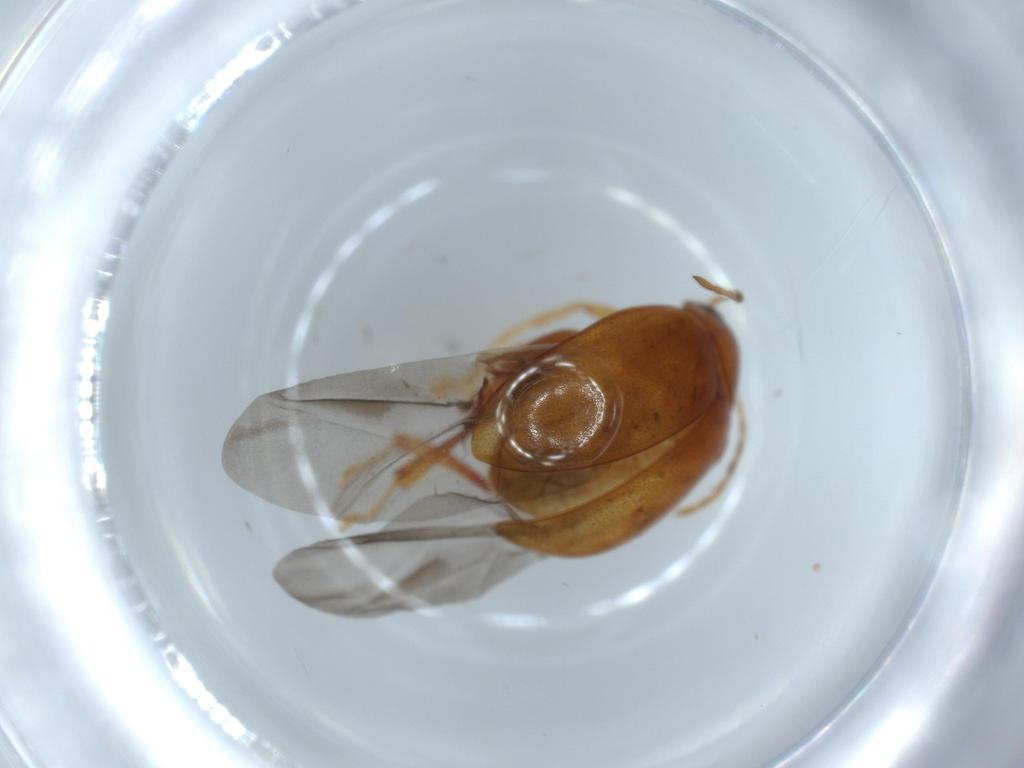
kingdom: Animalia
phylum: Arthropoda
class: Insecta
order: Coleoptera
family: Chrysomelidae
